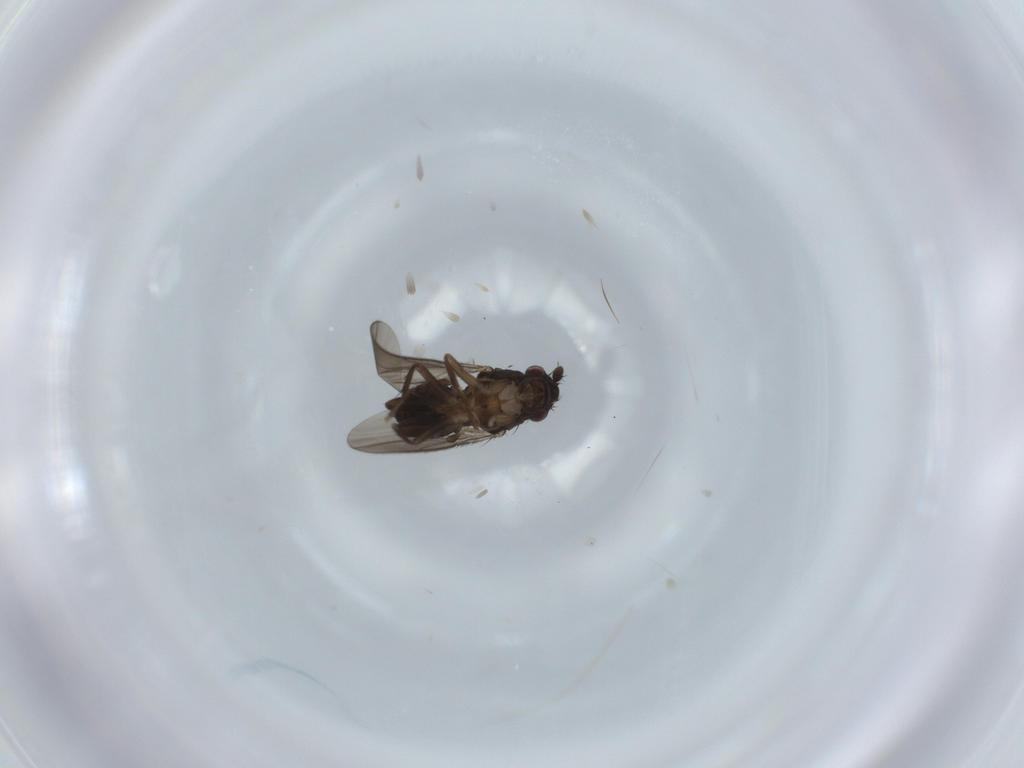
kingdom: Animalia
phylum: Arthropoda
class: Insecta
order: Diptera
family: Sphaeroceridae
